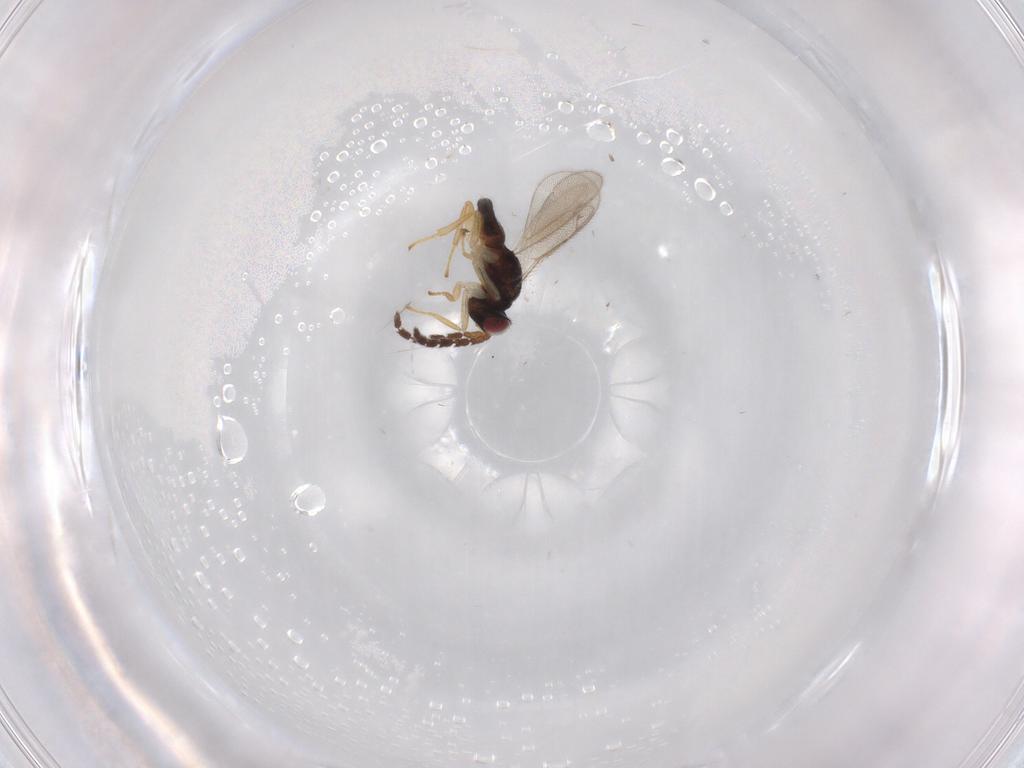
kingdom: Animalia
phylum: Arthropoda
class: Insecta
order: Hymenoptera
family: Eulophidae
